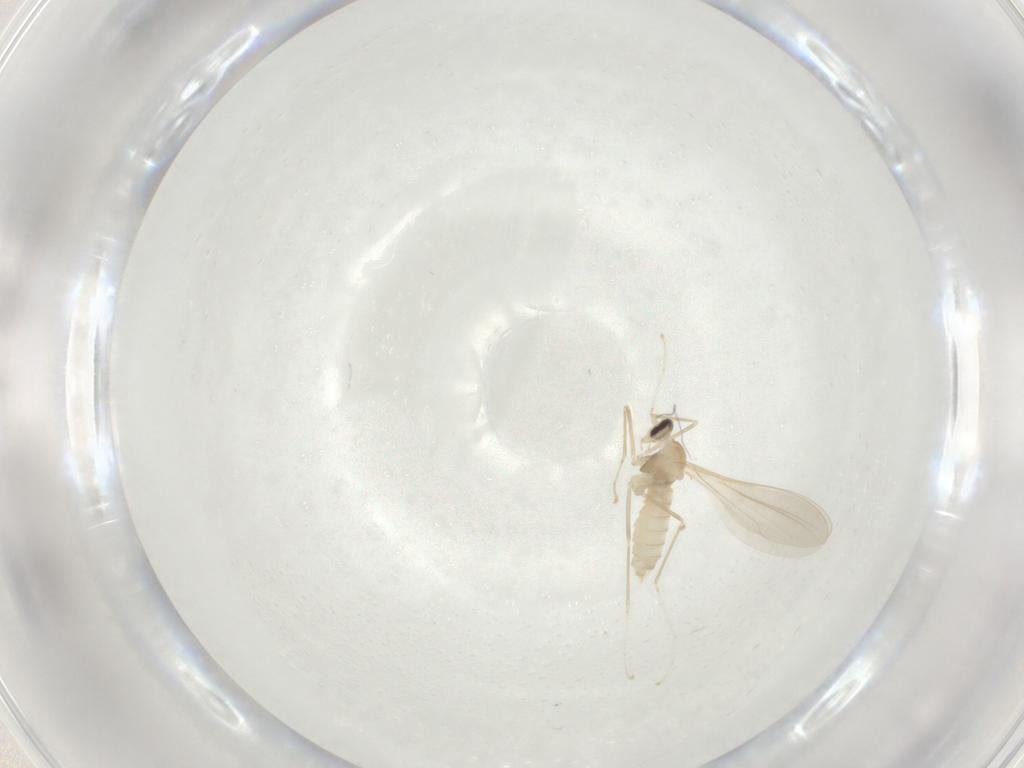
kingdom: Animalia
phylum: Arthropoda
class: Insecta
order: Diptera
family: Cecidomyiidae
